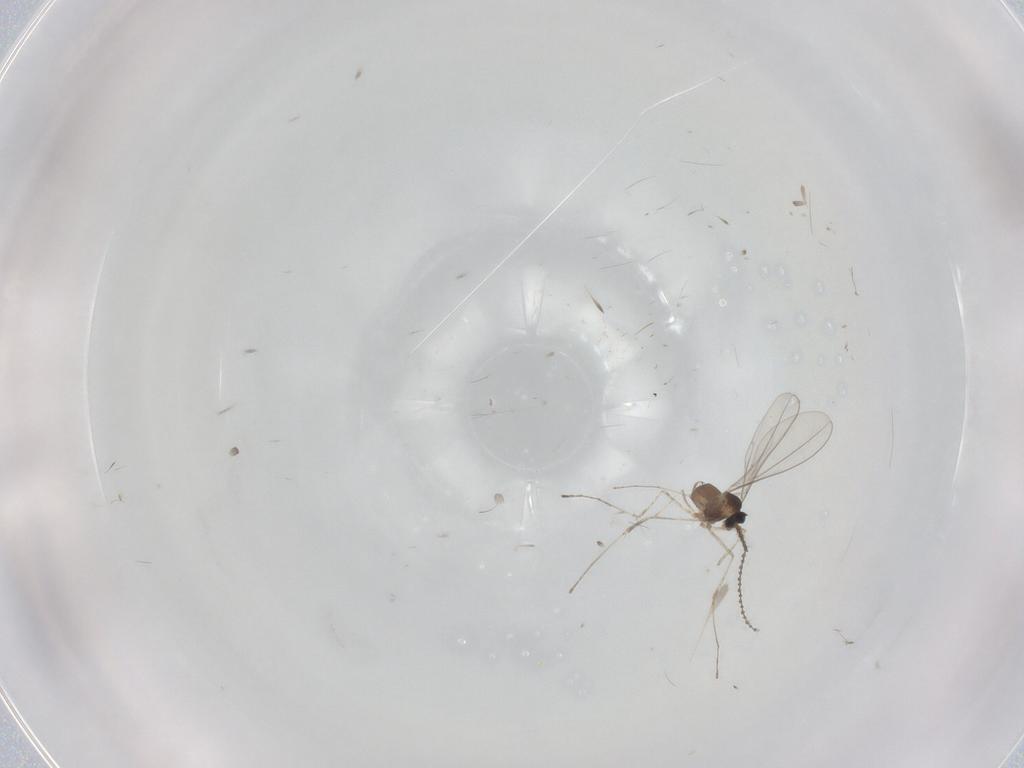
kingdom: Animalia
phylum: Arthropoda
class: Insecta
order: Diptera
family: Cecidomyiidae
